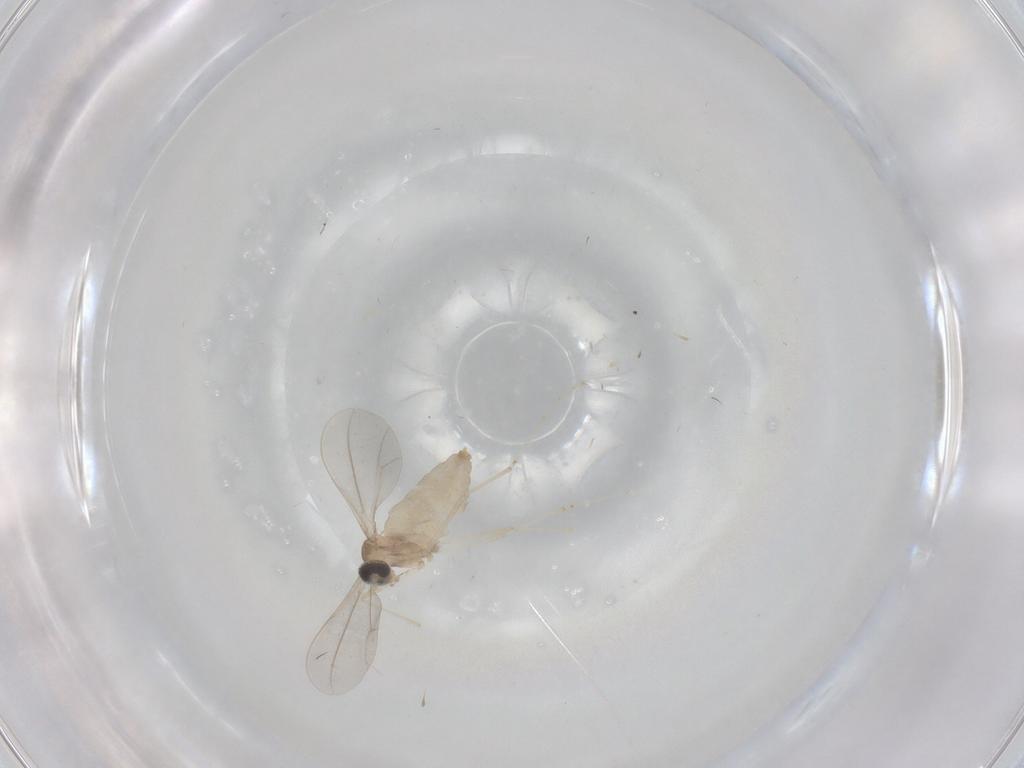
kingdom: Animalia
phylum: Arthropoda
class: Insecta
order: Diptera
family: Cecidomyiidae
